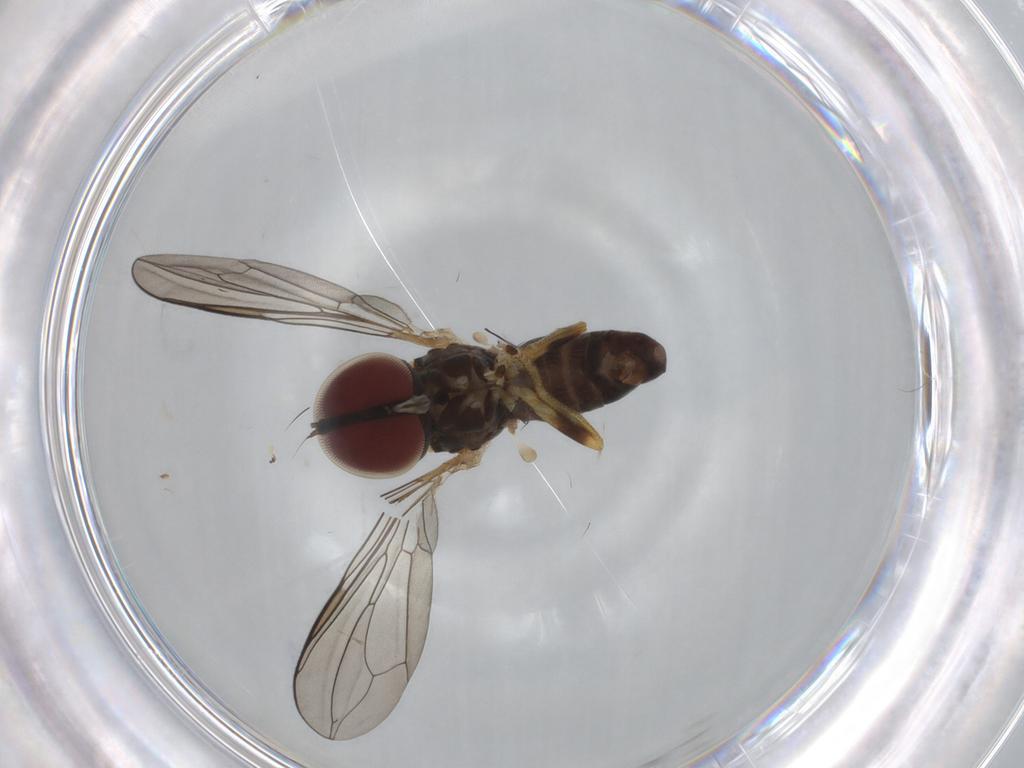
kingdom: Animalia
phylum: Arthropoda
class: Insecta
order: Diptera
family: Pipunculidae
